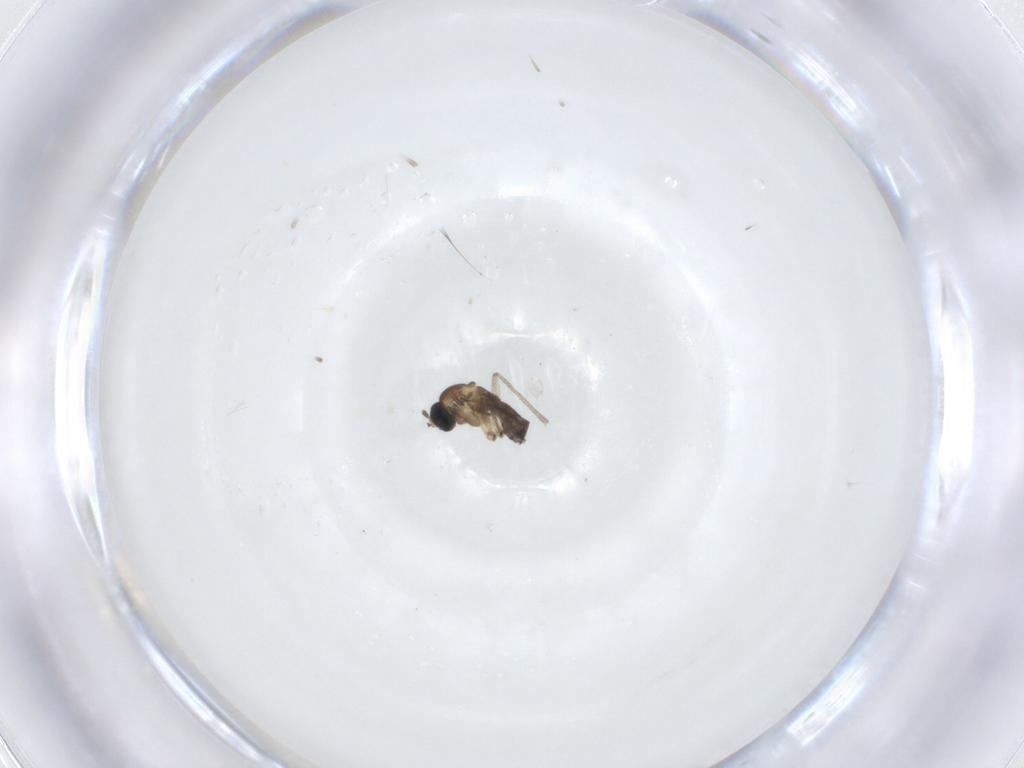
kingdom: Animalia
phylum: Arthropoda
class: Insecta
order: Diptera
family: Sciaridae
